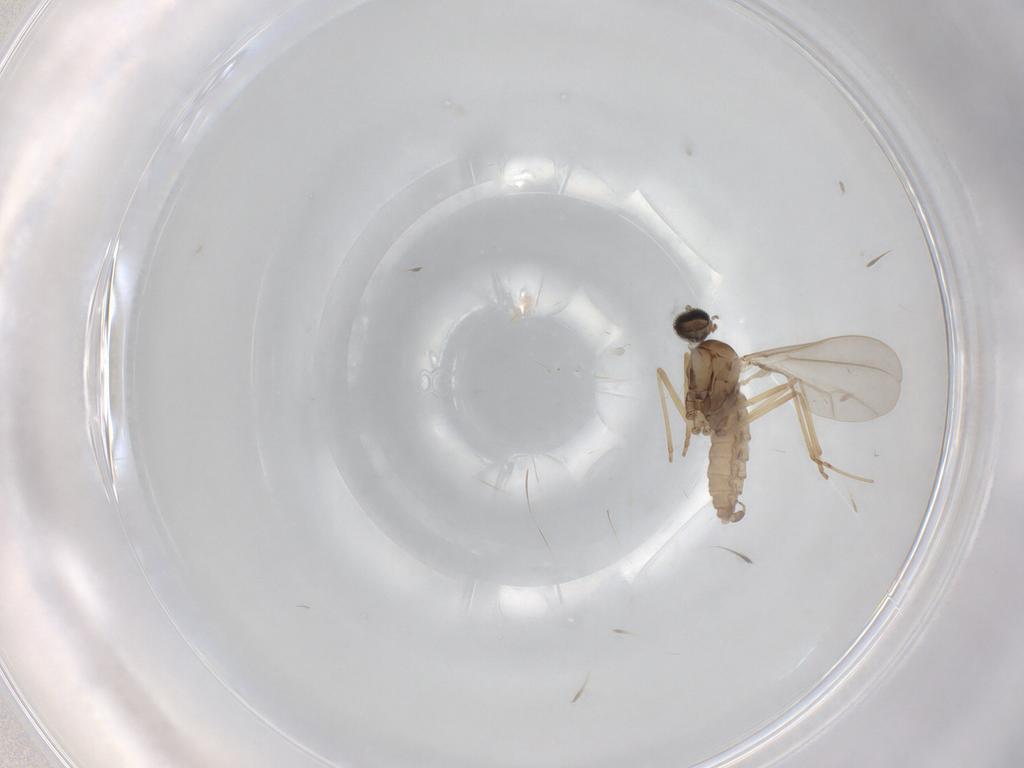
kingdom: Animalia
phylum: Arthropoda
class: Insecta
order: Diptera
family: Cecidomyiidae
